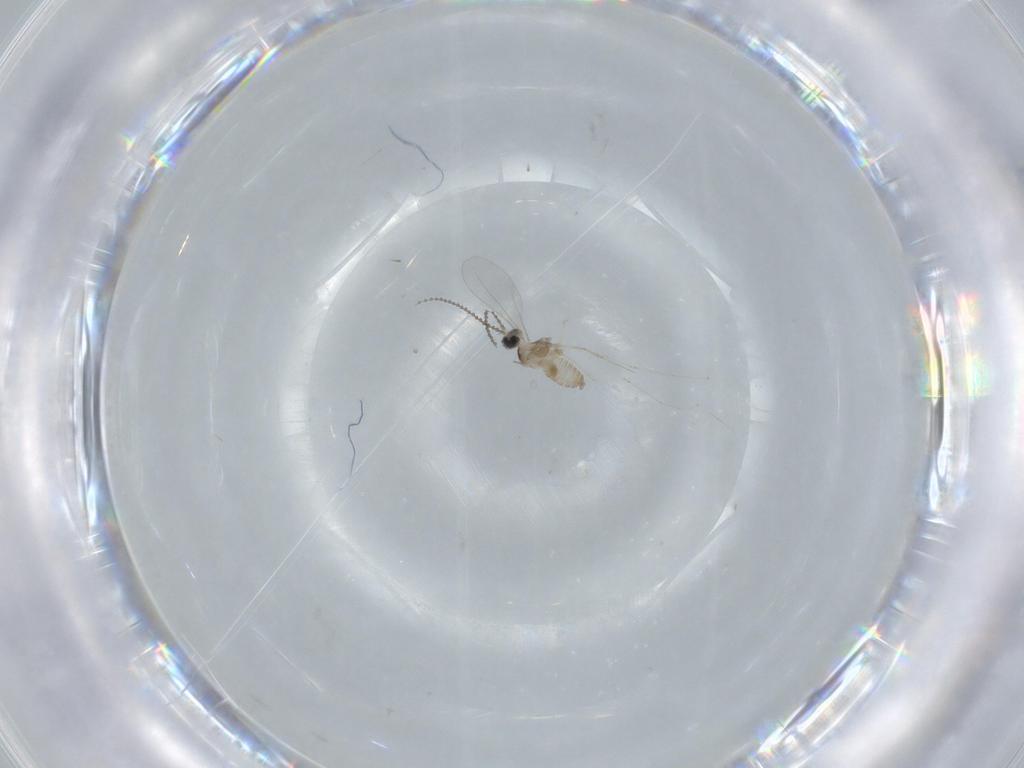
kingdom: Animalia
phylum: Arthropoda
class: Insecta
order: Diptera
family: Cecidomyiidae
